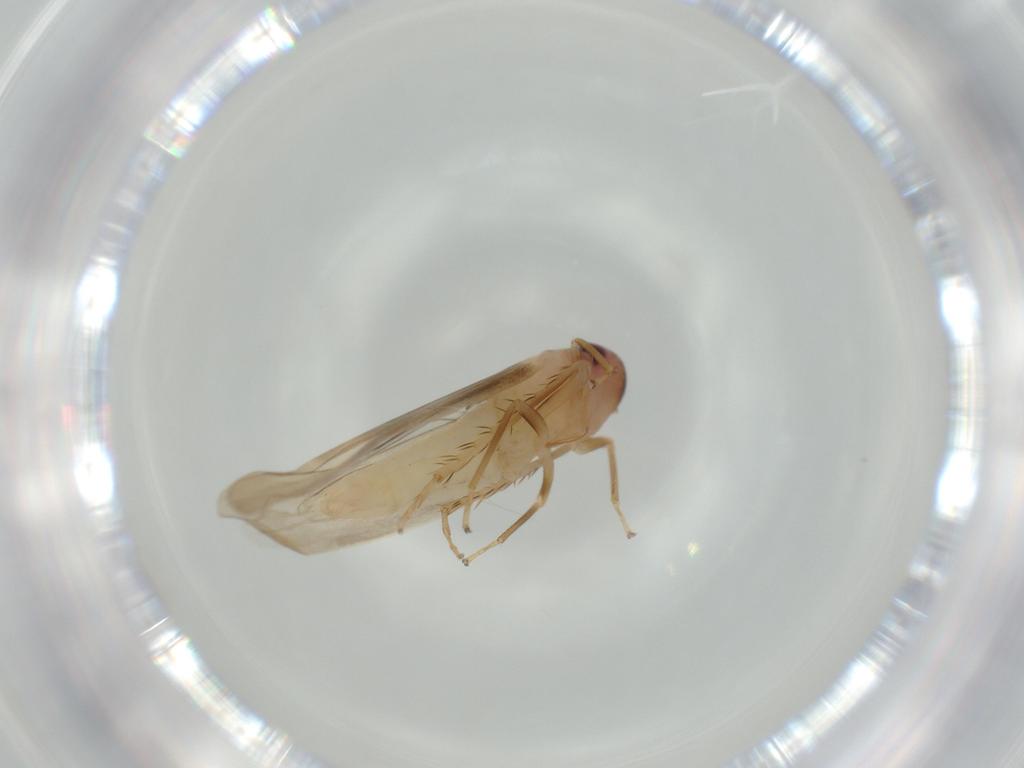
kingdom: Animalia
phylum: Arthropoda
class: Insecta
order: Hemiptera
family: Cicadellidae
